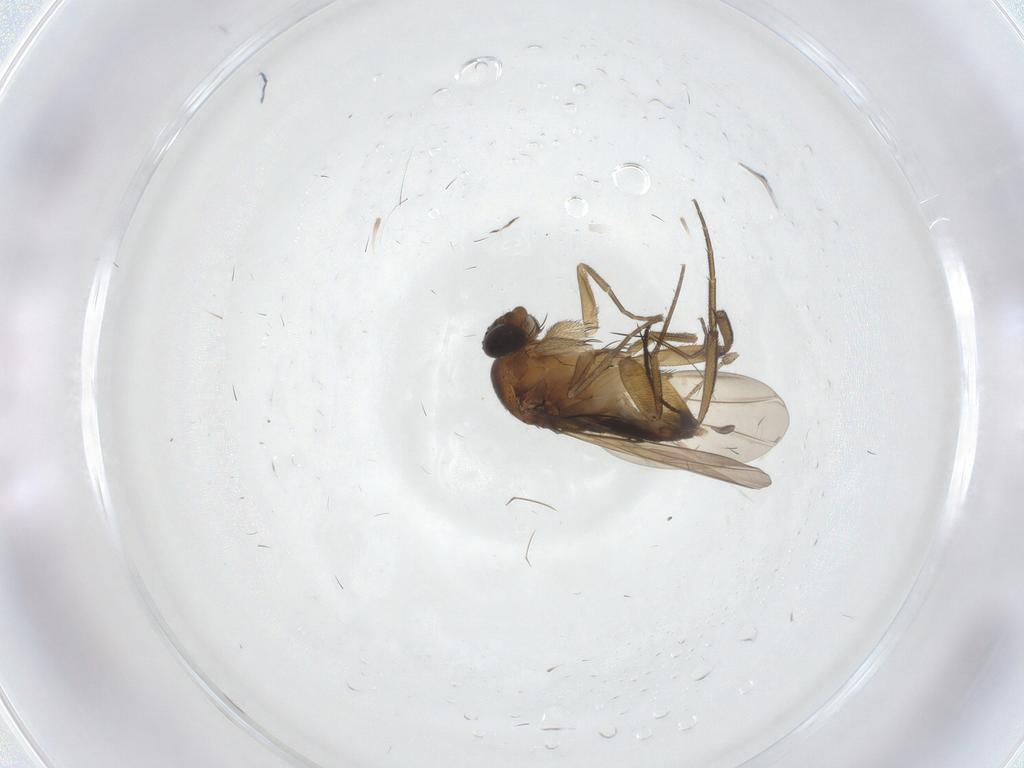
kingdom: Animalia
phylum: Arthropoda
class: Insecta
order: Diptera
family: Phoridae
